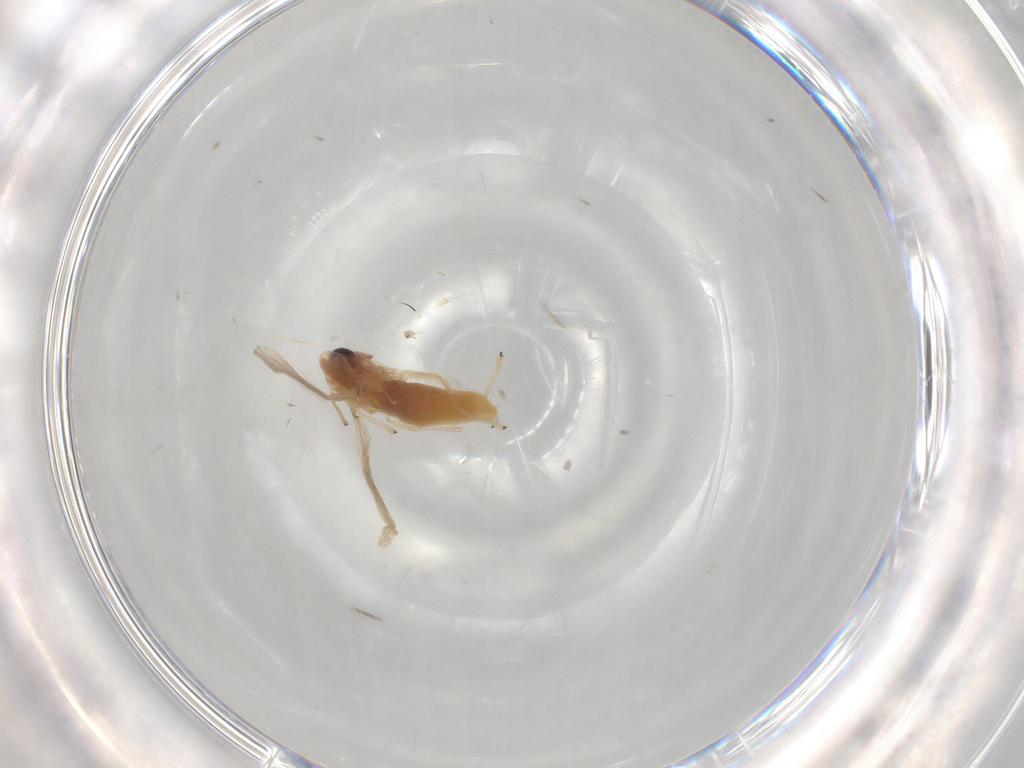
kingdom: Animalia
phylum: Arthropoda
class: Insecta
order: Diptera
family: Chironomidae
